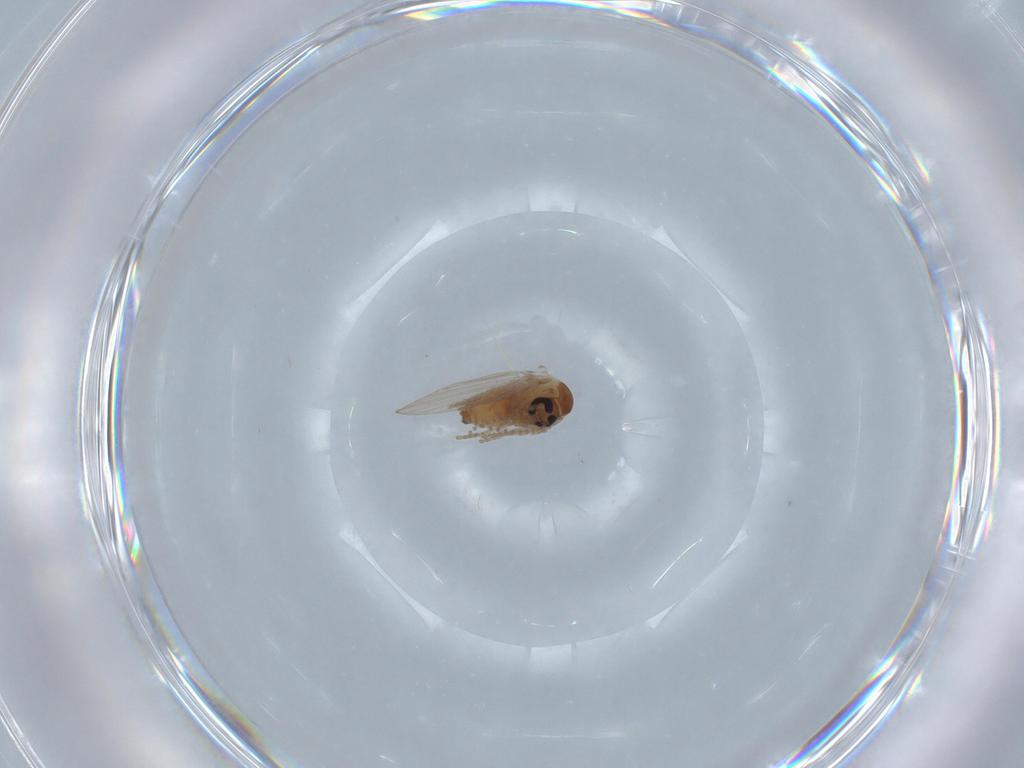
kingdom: Animalia
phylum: Arthropoda
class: Insecta
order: Diptera
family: Psychodidae
